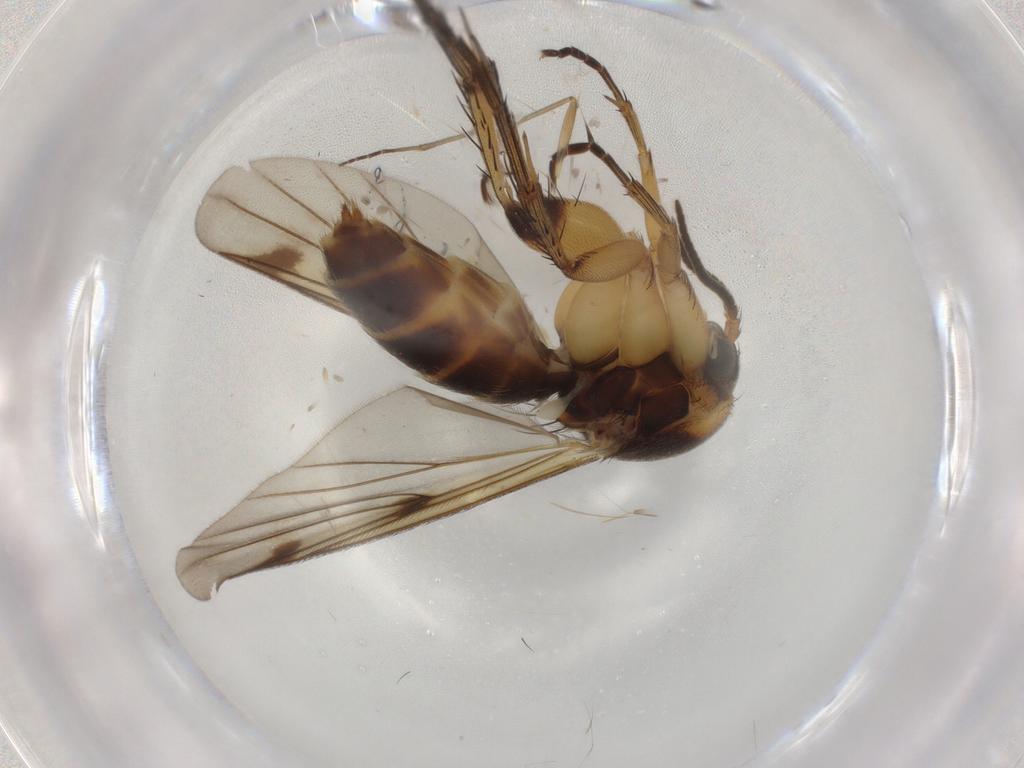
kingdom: Animalia
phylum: Arthropoda
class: Insecta
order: Diptera
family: Mycetophilidae
